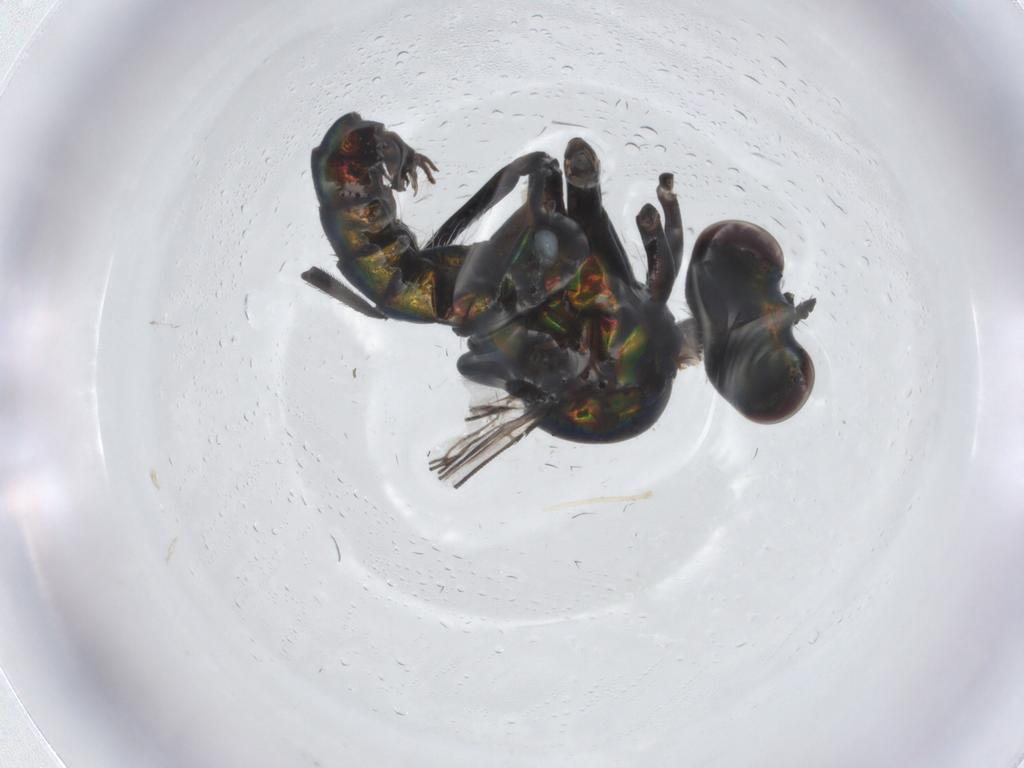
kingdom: Animalia
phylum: Arthropoda
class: Insecta
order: Diptera
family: Dolichopodidae
